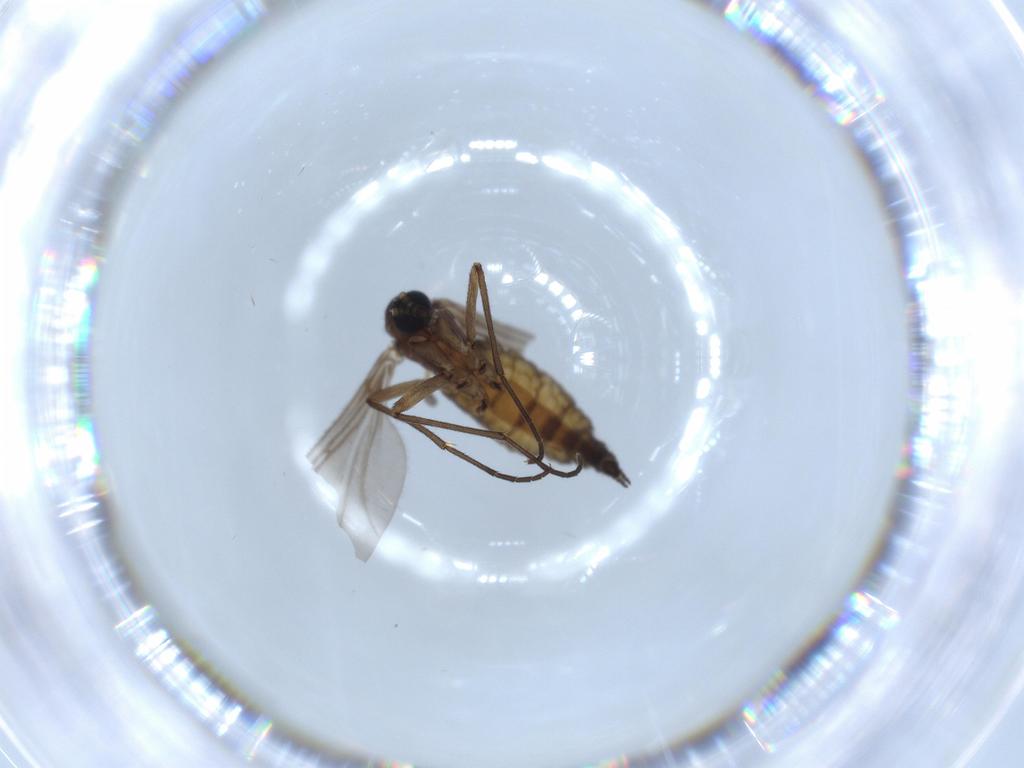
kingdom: Animalia
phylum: Arthropoda
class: Insecta
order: Diptera
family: Sciaridae
